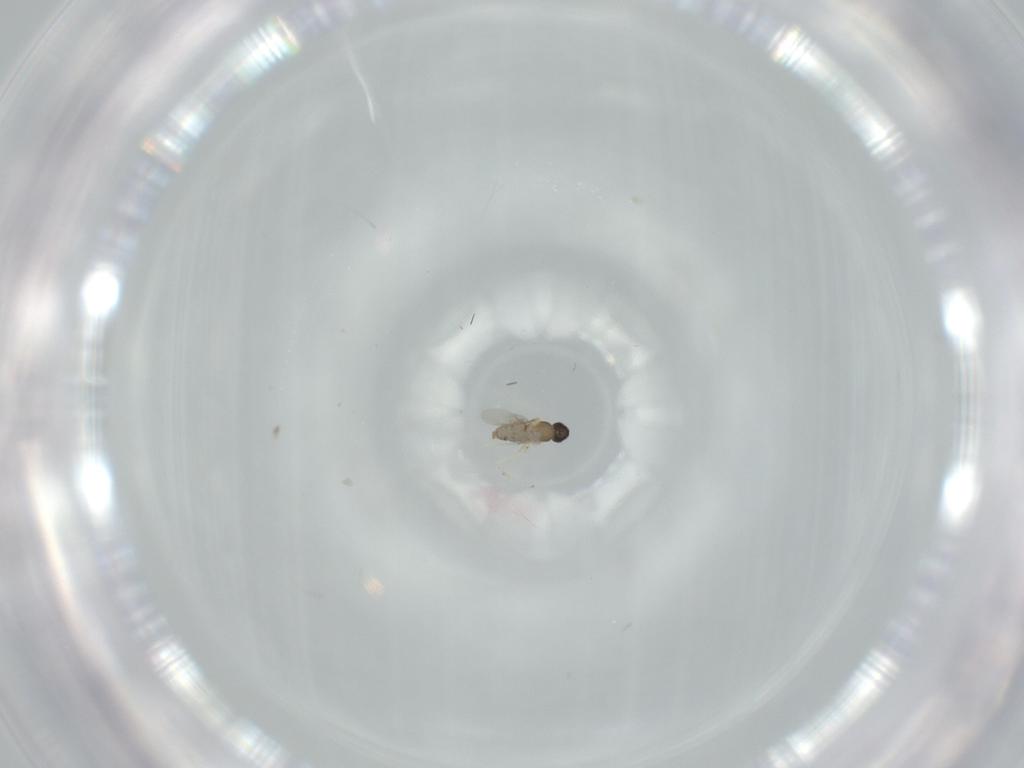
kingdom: Animalia
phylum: Arthropoda
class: Insecta
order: Diptera
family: Cecidomyiidae
